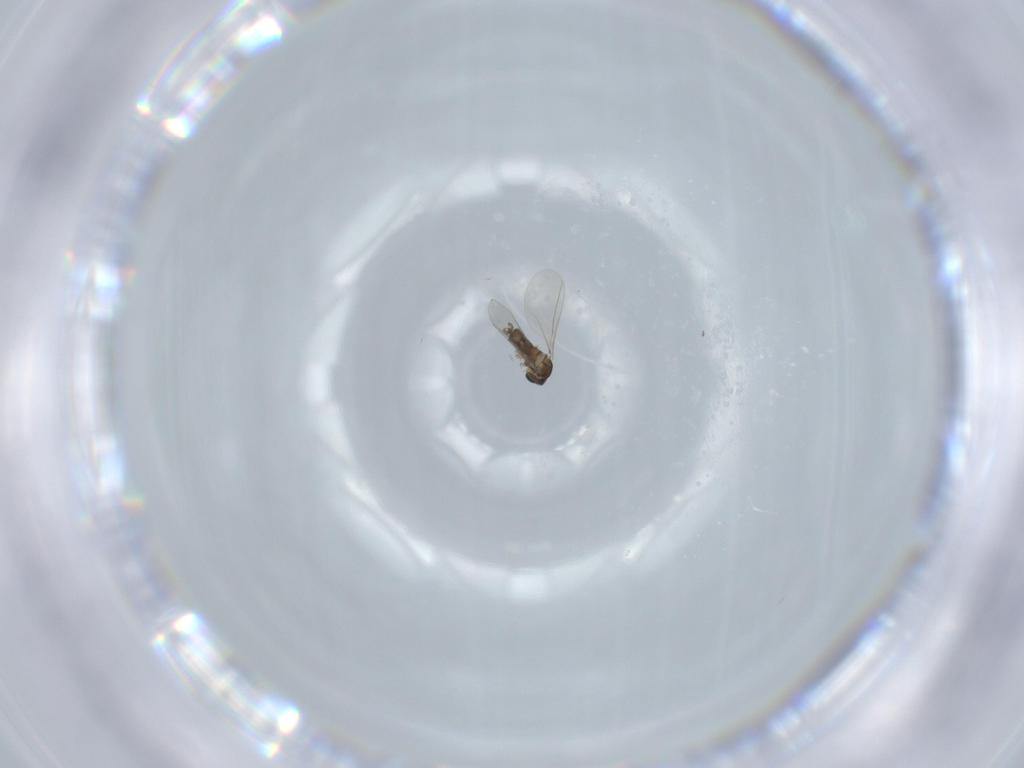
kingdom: Animalia
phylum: Arthropoda
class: Insecta
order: Diptera
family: Cecidomyiidae
